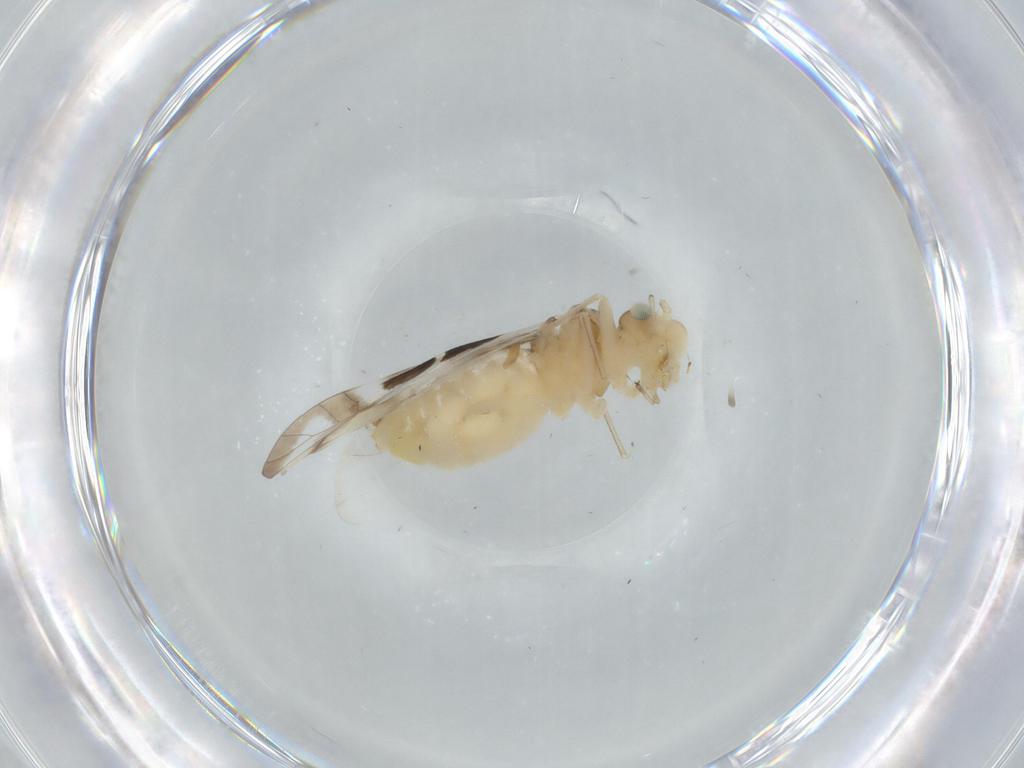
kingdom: Animalia
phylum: Arthropoda
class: Insecta
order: Psocodea
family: Stenopsocidae
